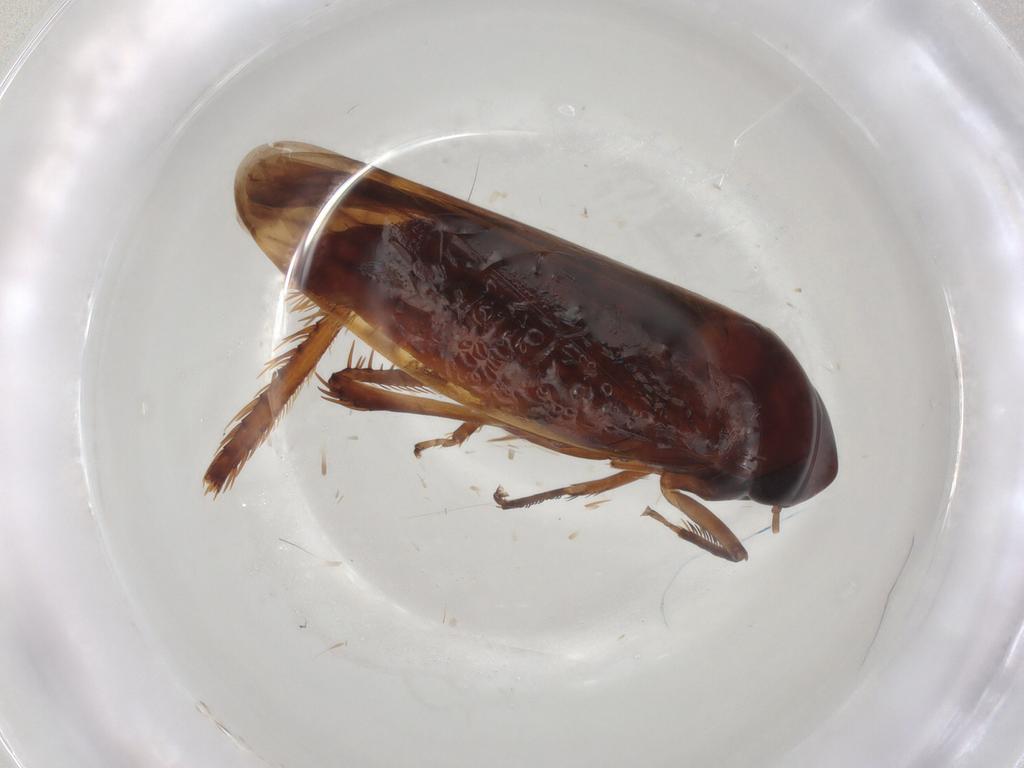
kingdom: Animalia
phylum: Arthropoda
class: Insecta
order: Hemiptera
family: Cicadellidae
